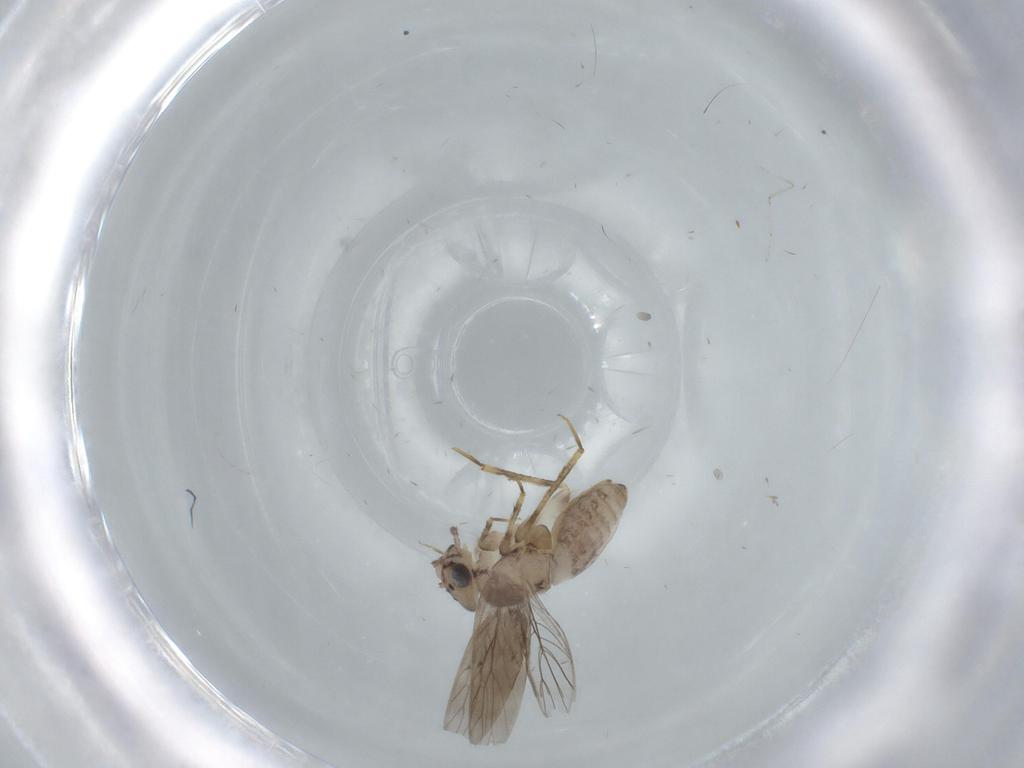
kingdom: Animalia
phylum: Arthropoda
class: Insecta
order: Psocodea
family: Lepidopsocidae
